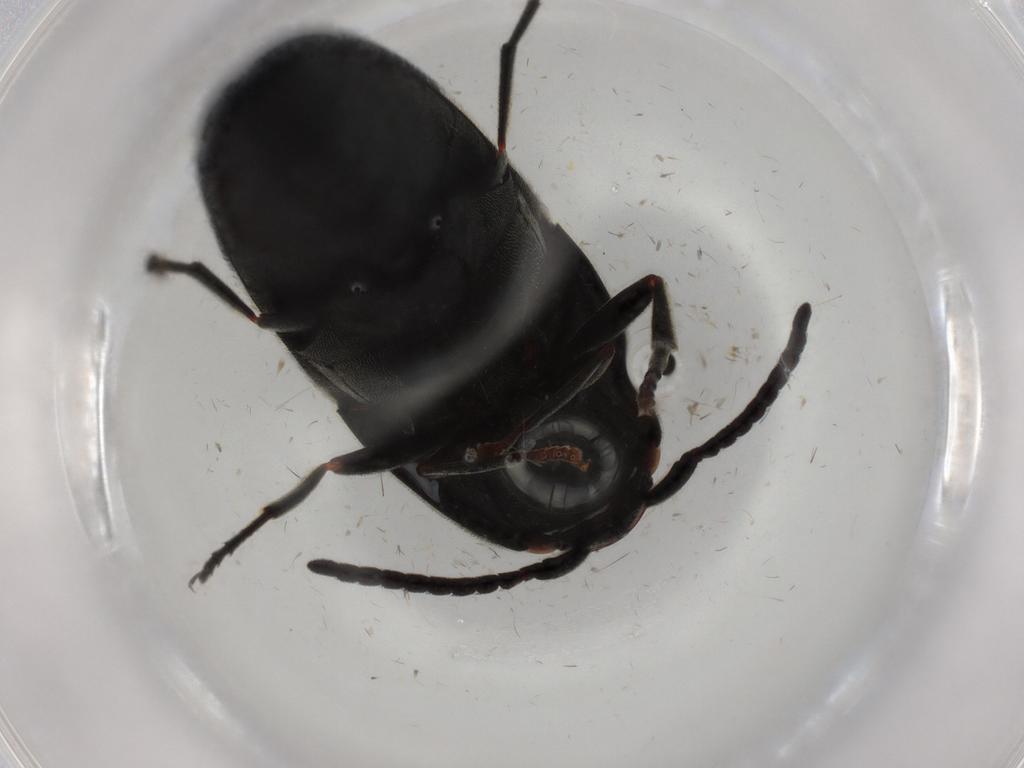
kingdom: Animalia
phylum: Arthropoda
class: Insecta
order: Coleoptera
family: Eucnemidae
